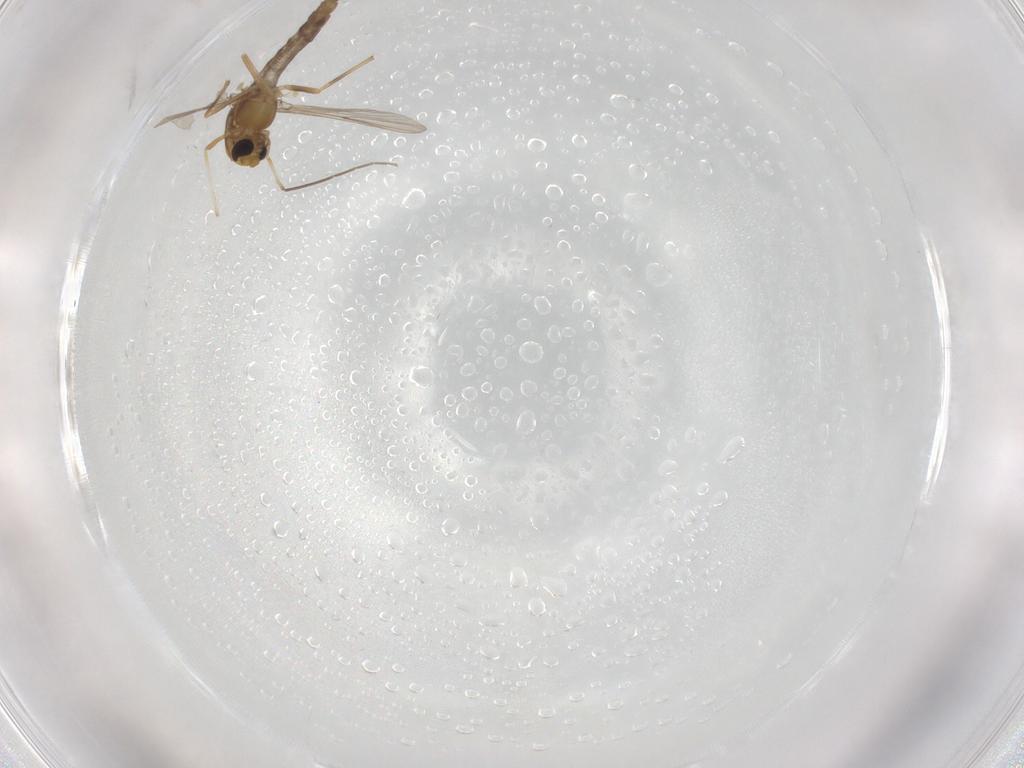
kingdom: Animalia
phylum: Arthropoda
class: Insecta
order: Diptera
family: Chironomidae
